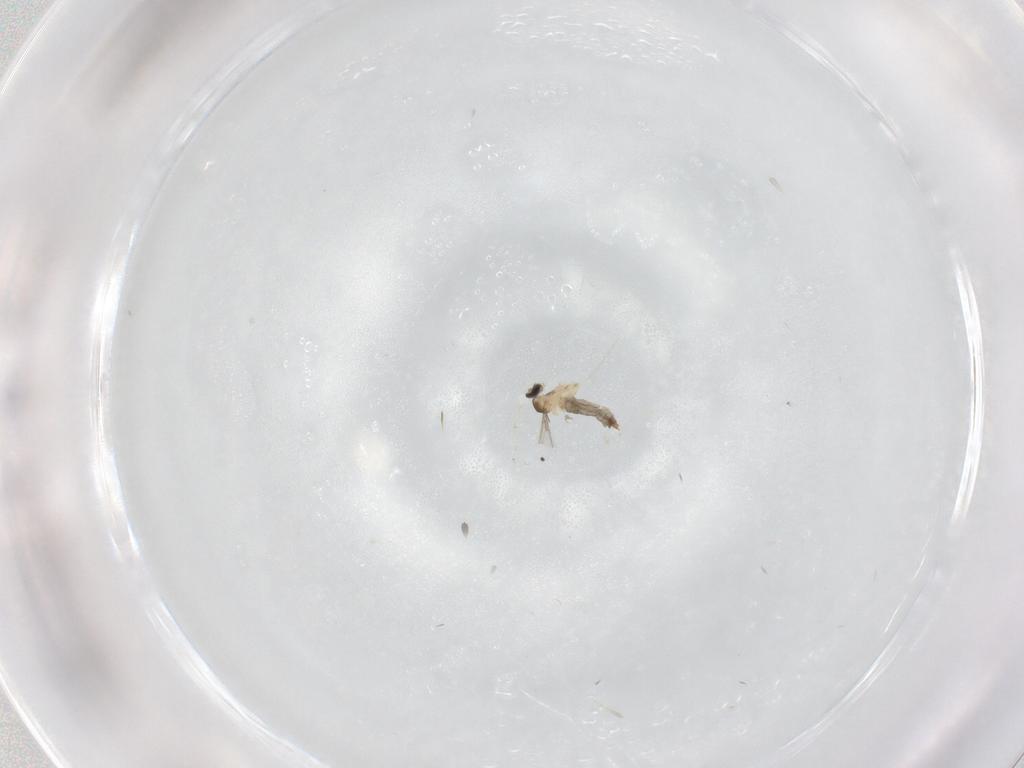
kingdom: Animalia
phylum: Arthropoda
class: Insecta
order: Diptera
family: Cecidomyiidae
